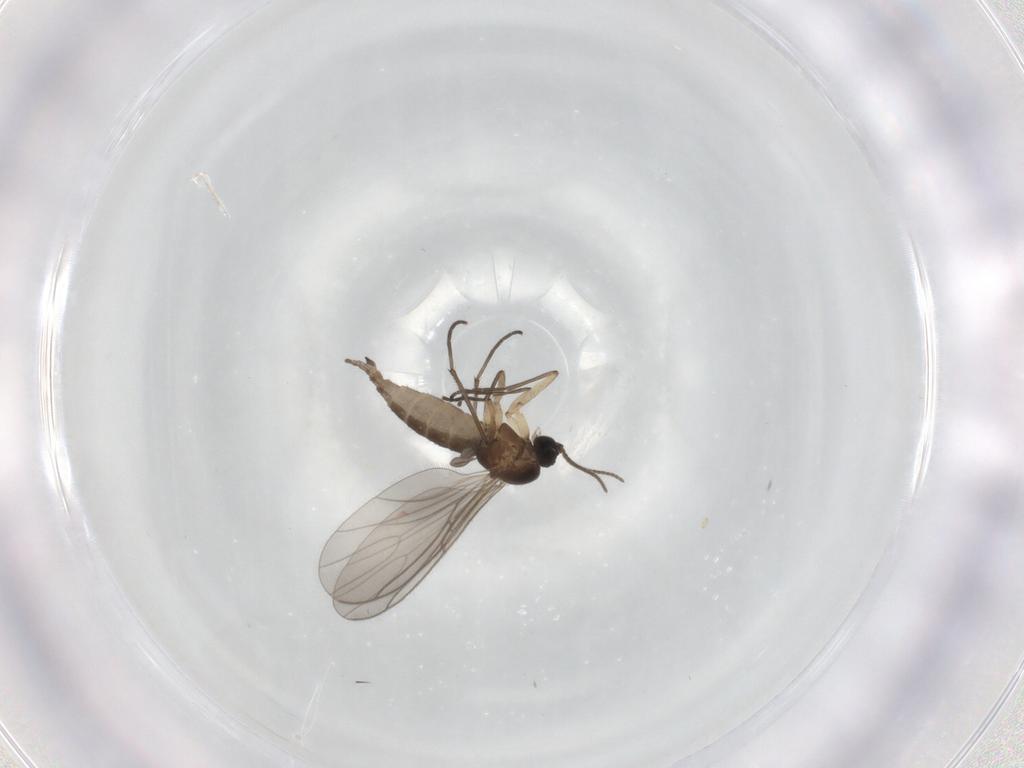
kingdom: Animalia
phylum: Arthropoda
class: Insecta
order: Diptera
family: Sciaridae
